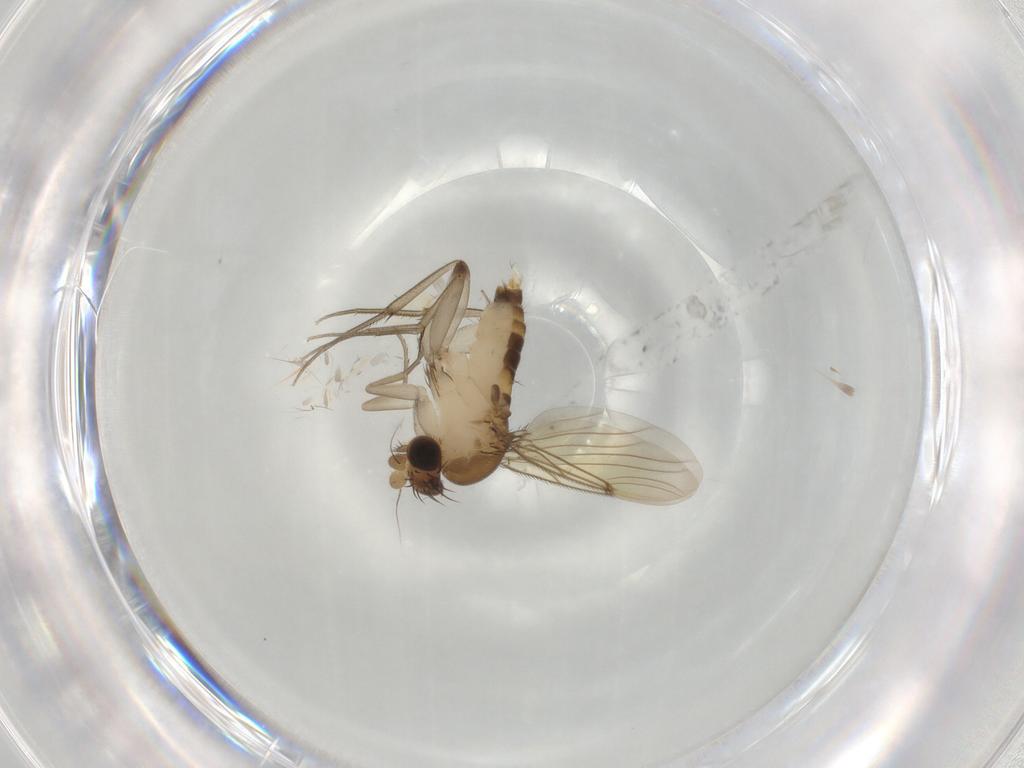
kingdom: Animalia
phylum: Arthropoda
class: Insecta
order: Diptera
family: Phoridae
